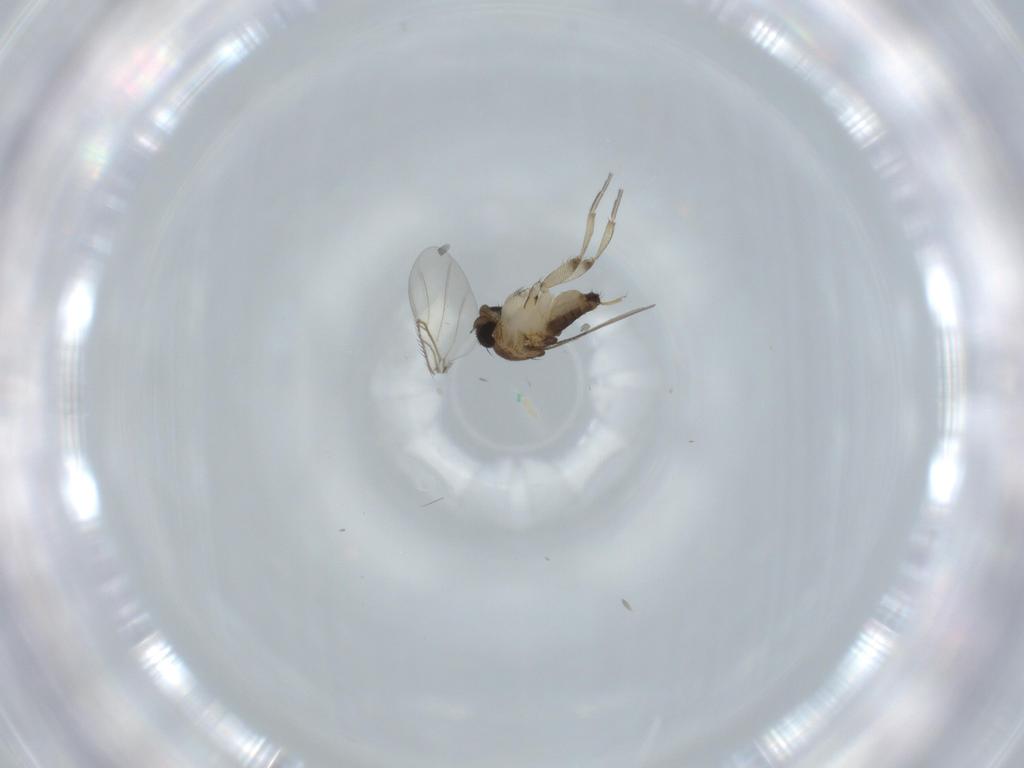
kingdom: Animalia
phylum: Arthropoda
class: Insecta
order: Diptera
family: Phoridae
